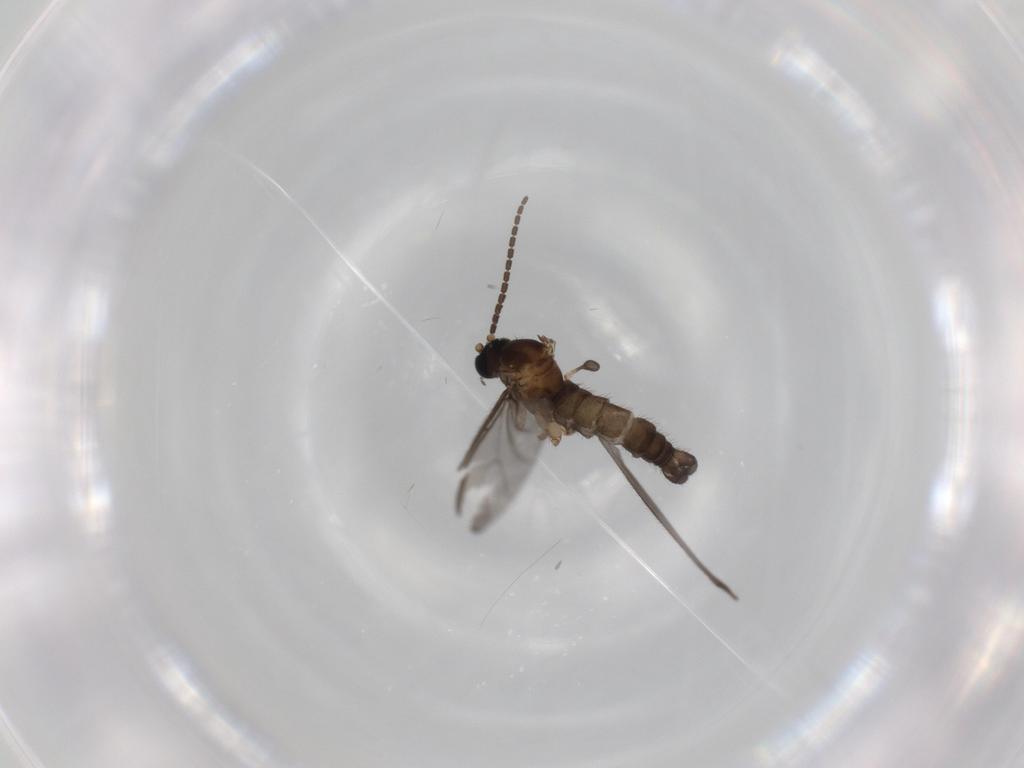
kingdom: Animalia
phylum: Arthropoda
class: Insecta
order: Diptera
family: Sciaridae
